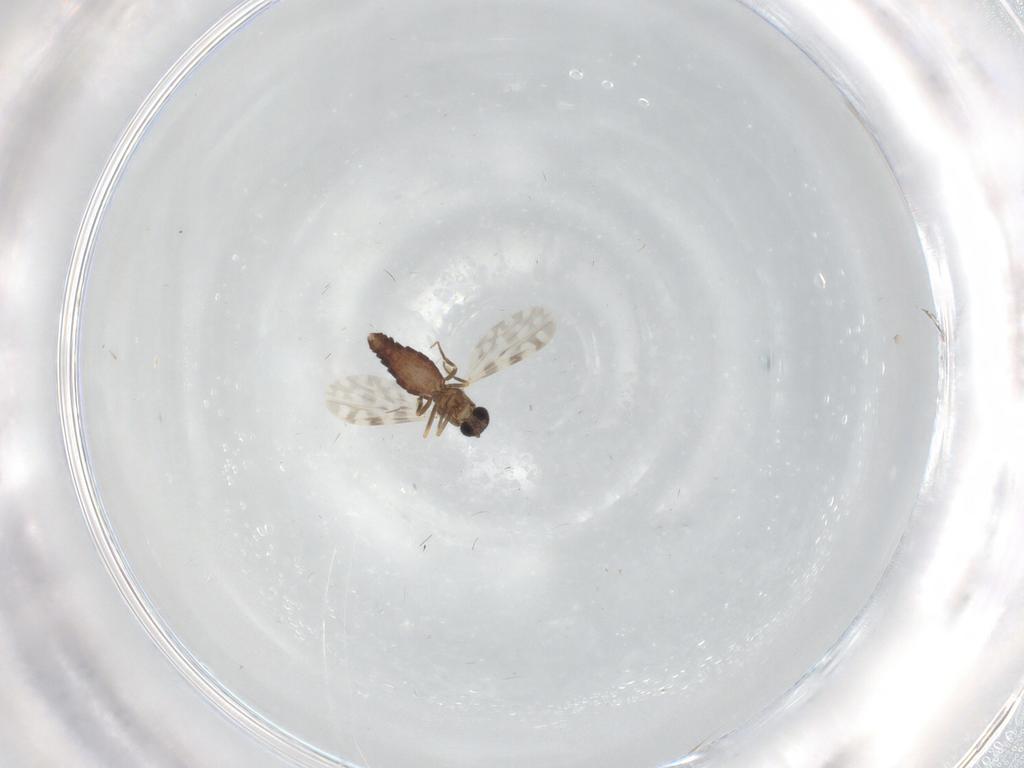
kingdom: Animalia
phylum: Arthropoda
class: Insecta
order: Diptera
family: Ceratopogonidae
